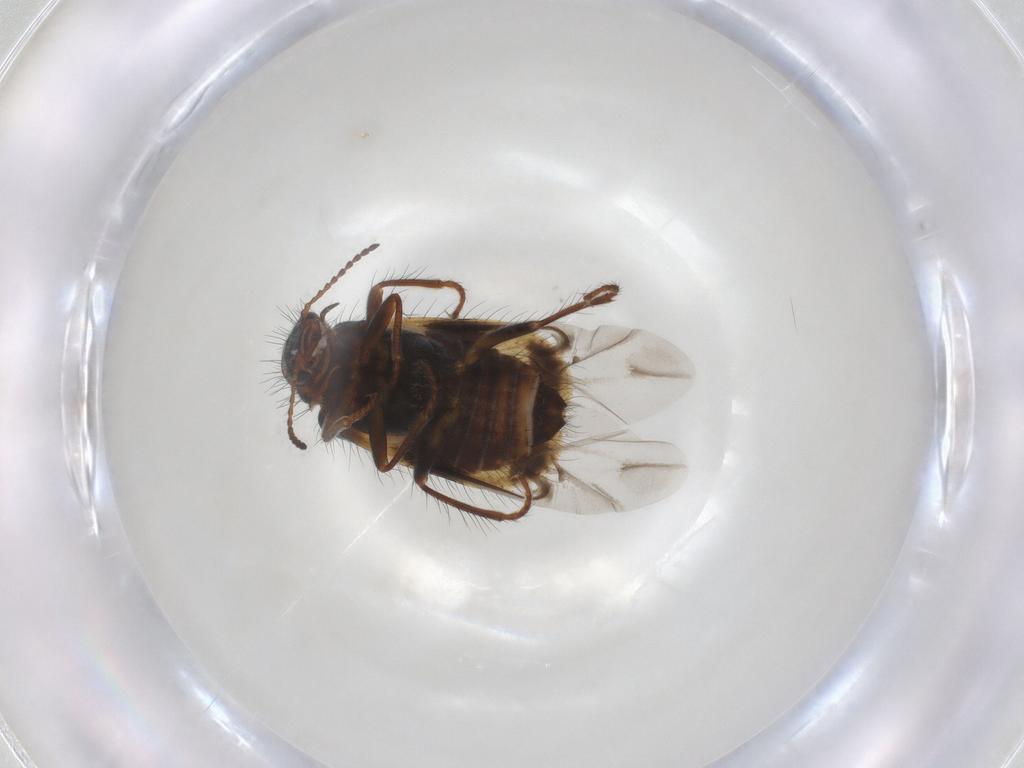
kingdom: Animalia
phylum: Arthropoda
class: Insecta
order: Coleoptera
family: Melyridae
